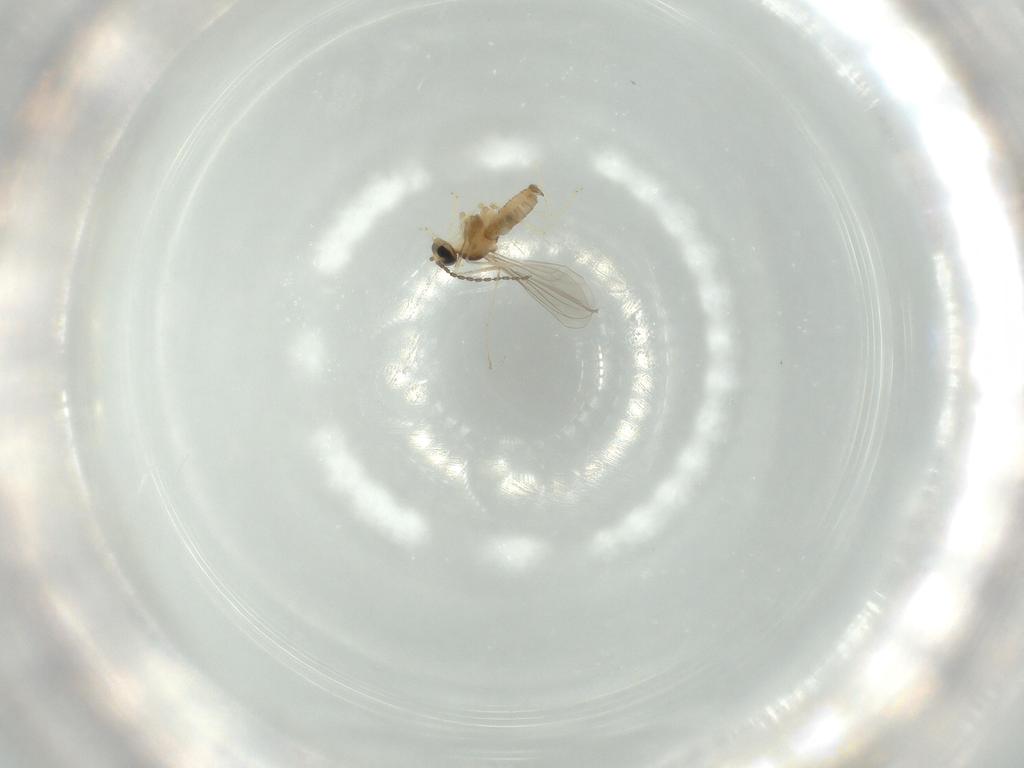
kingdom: Animalia
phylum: Arthropoda
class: Insecta
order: Diptera
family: Cecidomyiidae
